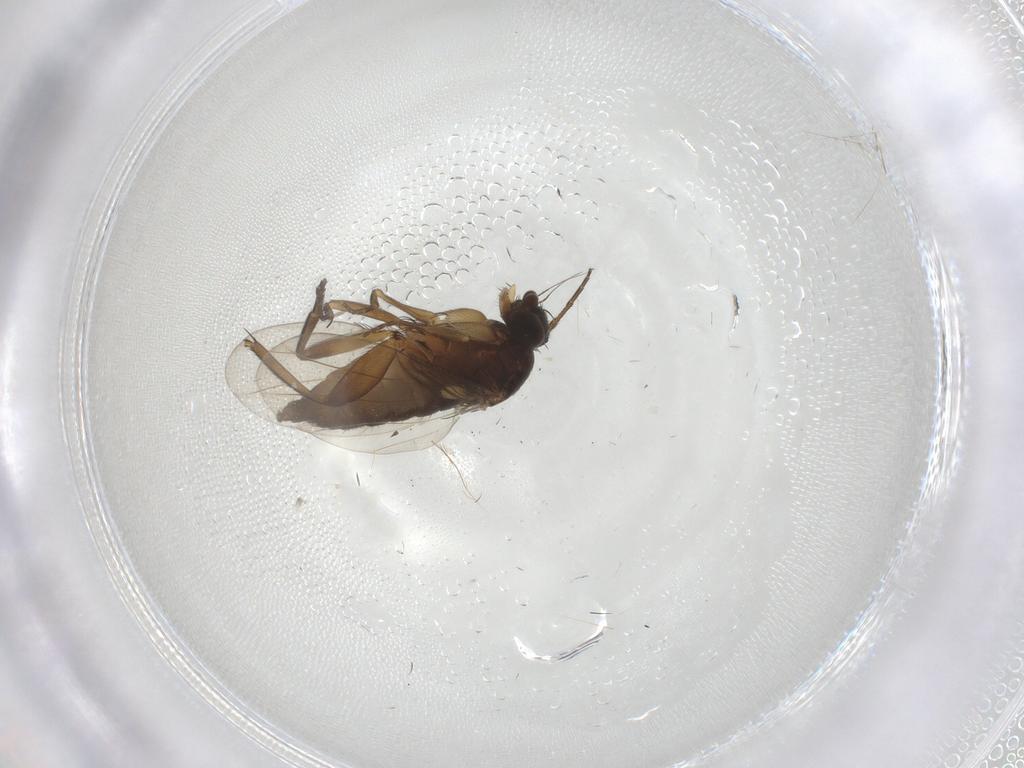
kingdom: Animalia
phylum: Arthropoda
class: Insecta
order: Diptera
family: Phoridae
